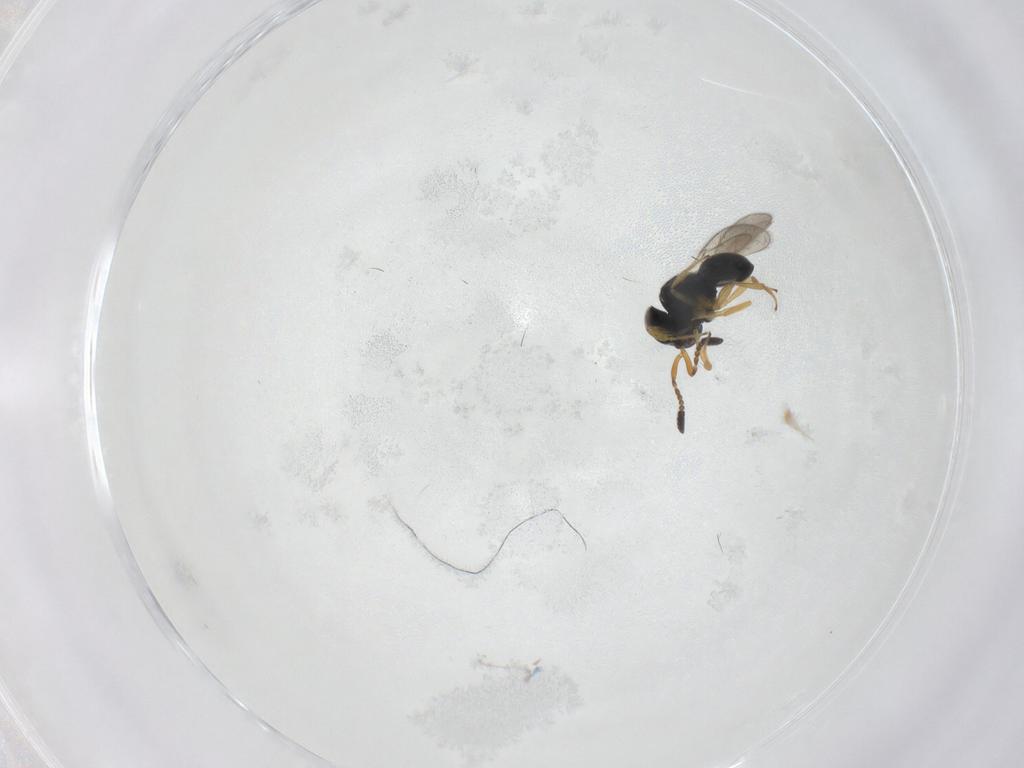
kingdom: Animalia
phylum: Arthropoda
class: Insecta
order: Hymenoptera
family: Scelionidae
